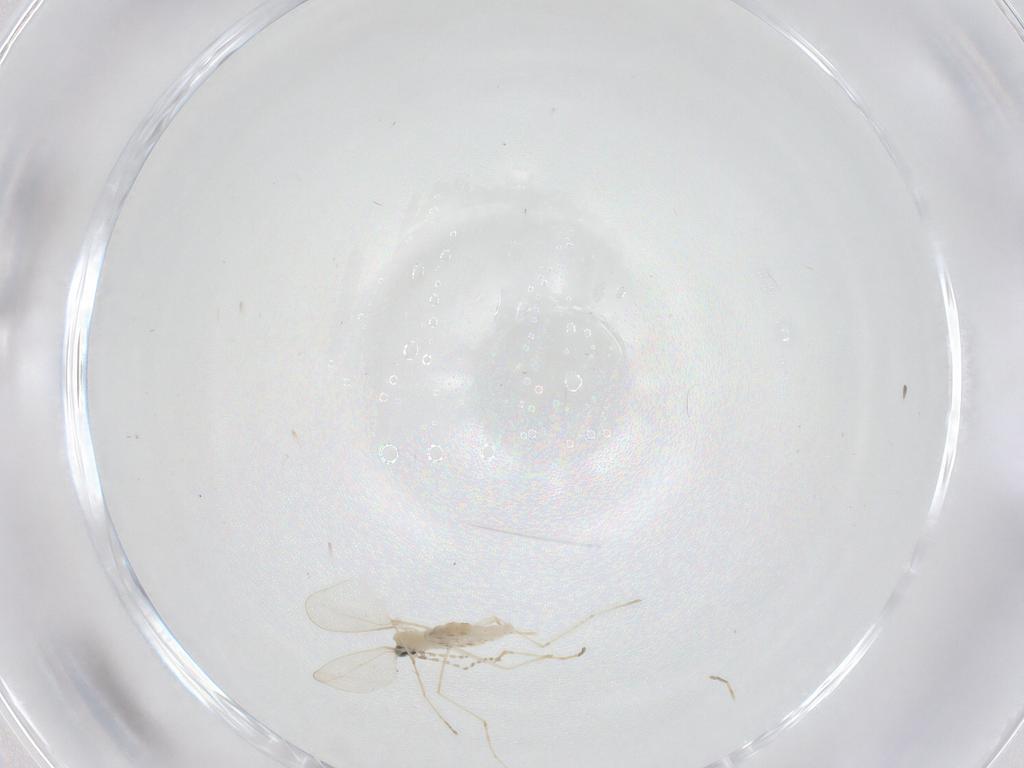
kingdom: Animalia
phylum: Arthropoda
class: Insecta
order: Diptera
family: Cecidomyiidae
